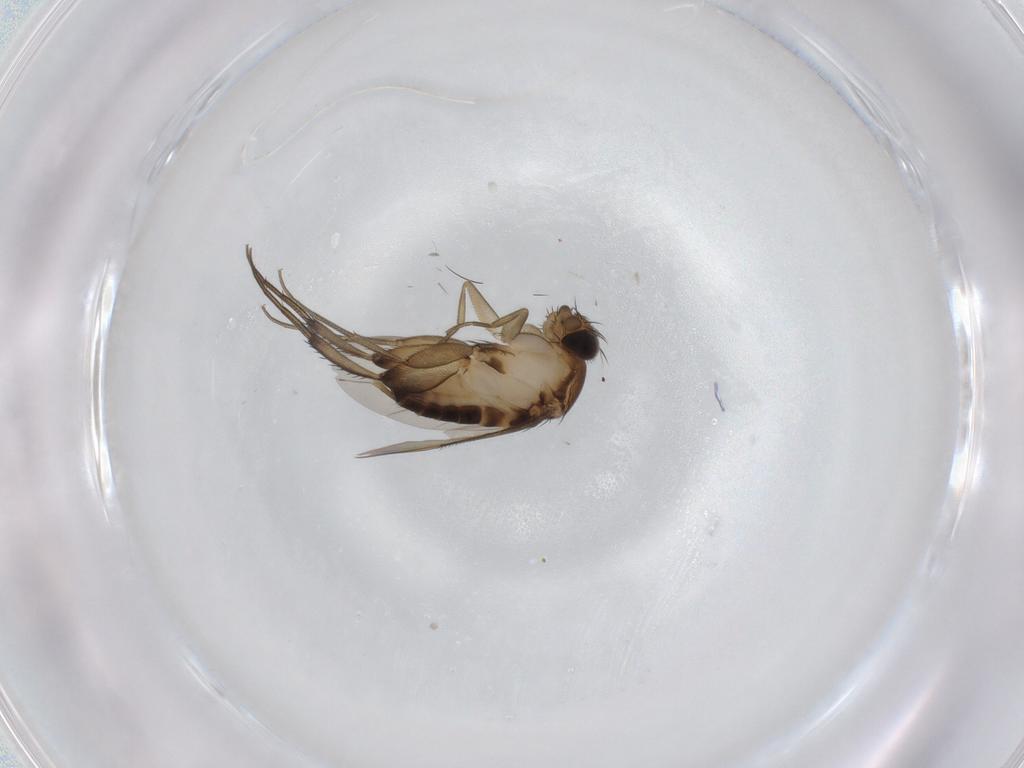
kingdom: Animalia
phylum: Arthropoda
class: Insecta
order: Diptera
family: Phoridae
